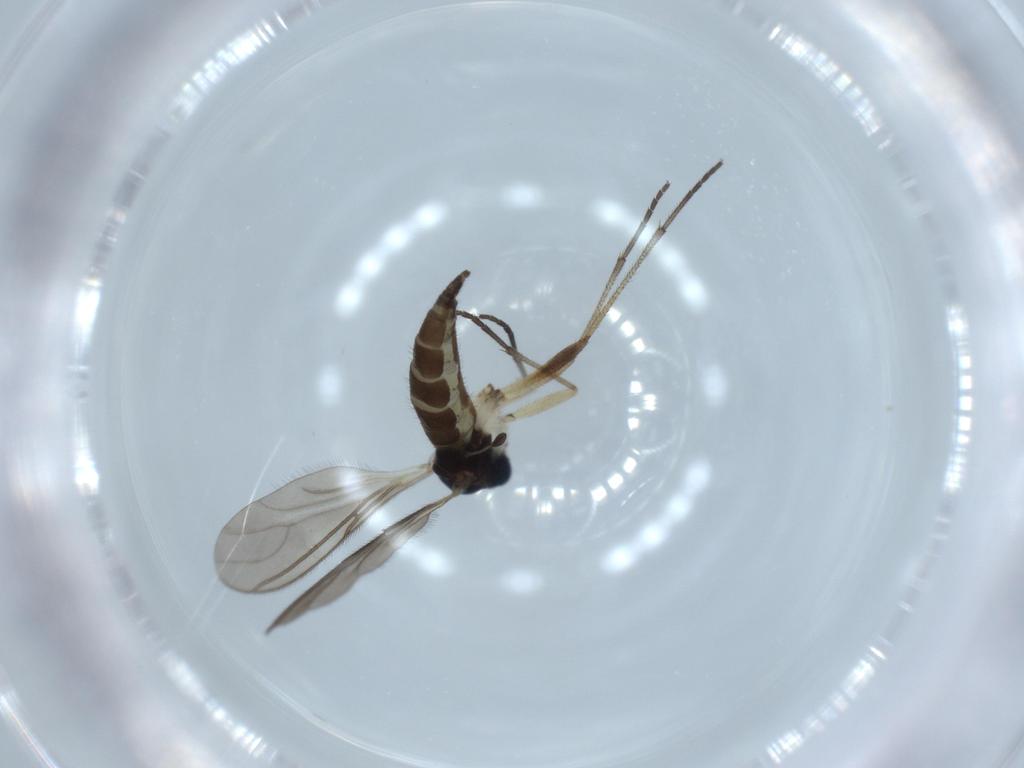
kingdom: Animalia
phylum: Arthropoda
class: Insecta
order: Diptera
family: Sciaridae
